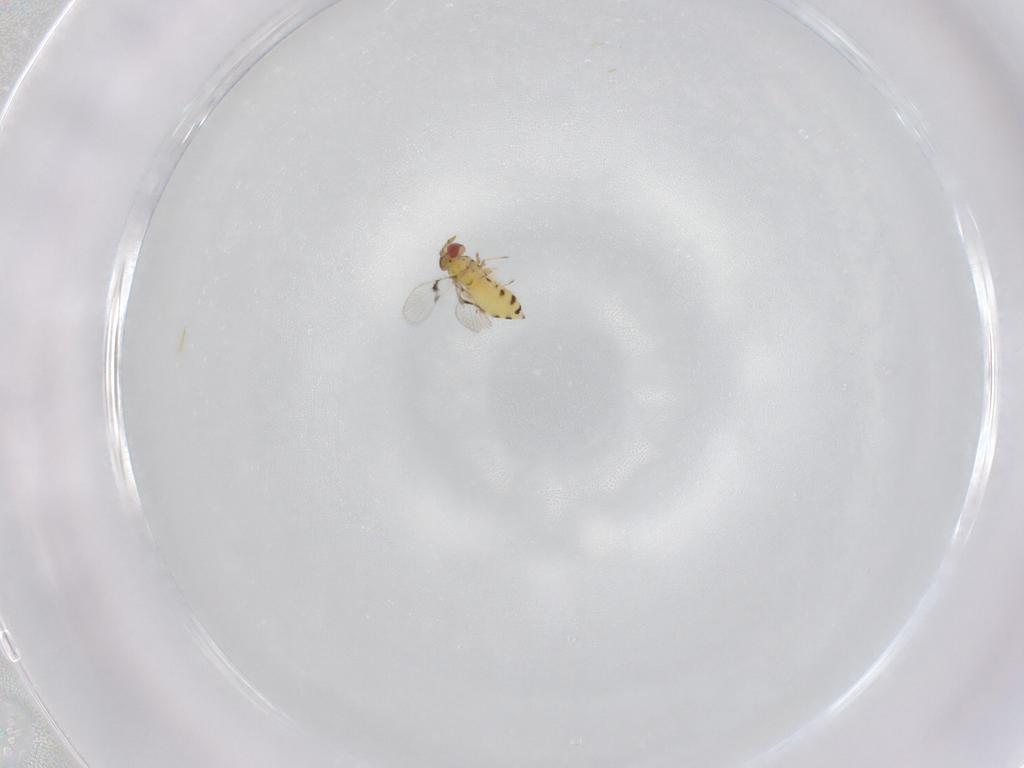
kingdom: Animalia
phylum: Arthropoda
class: Insecta
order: Hymenoptera
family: Trichogrammatidae
